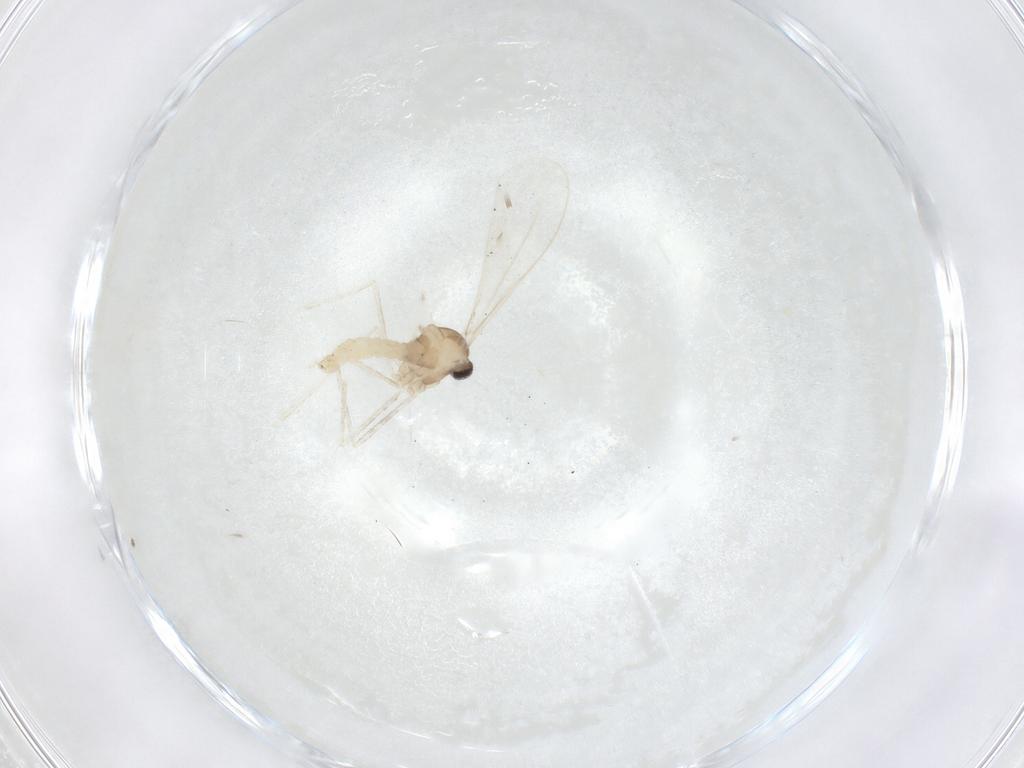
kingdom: Animalia
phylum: Arthropoda
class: Insecta
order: Diptera
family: Cecidomyiidae
